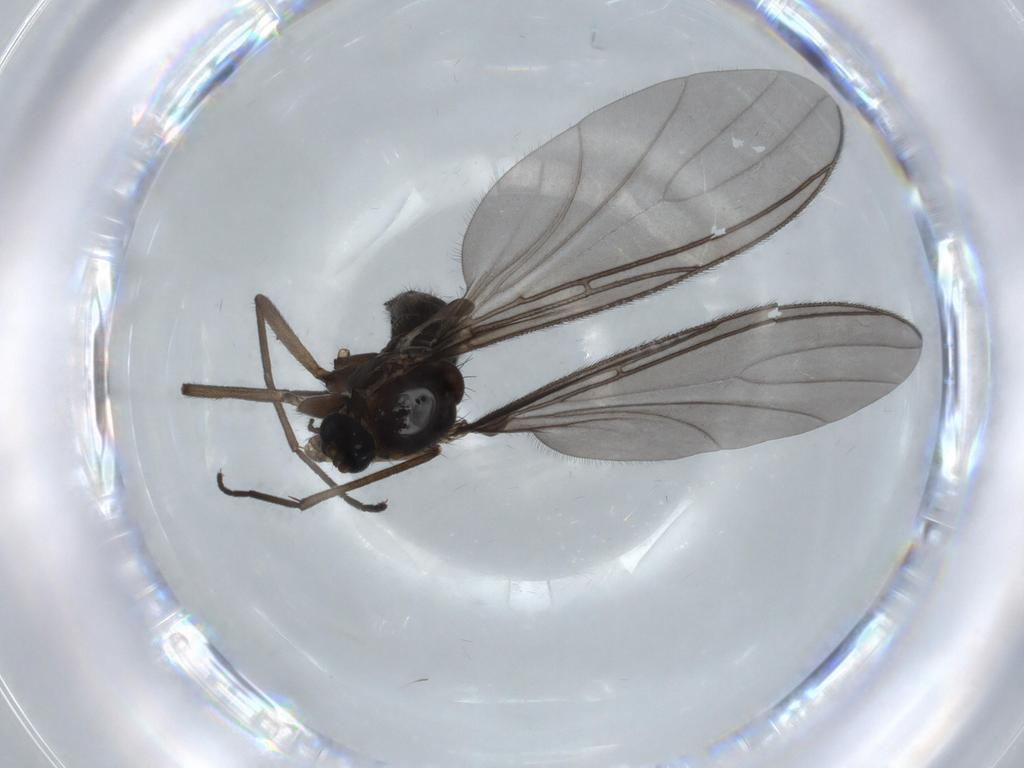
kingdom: Animalia
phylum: Arthropoda
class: Insecta
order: Diptera
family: Sciaridae
